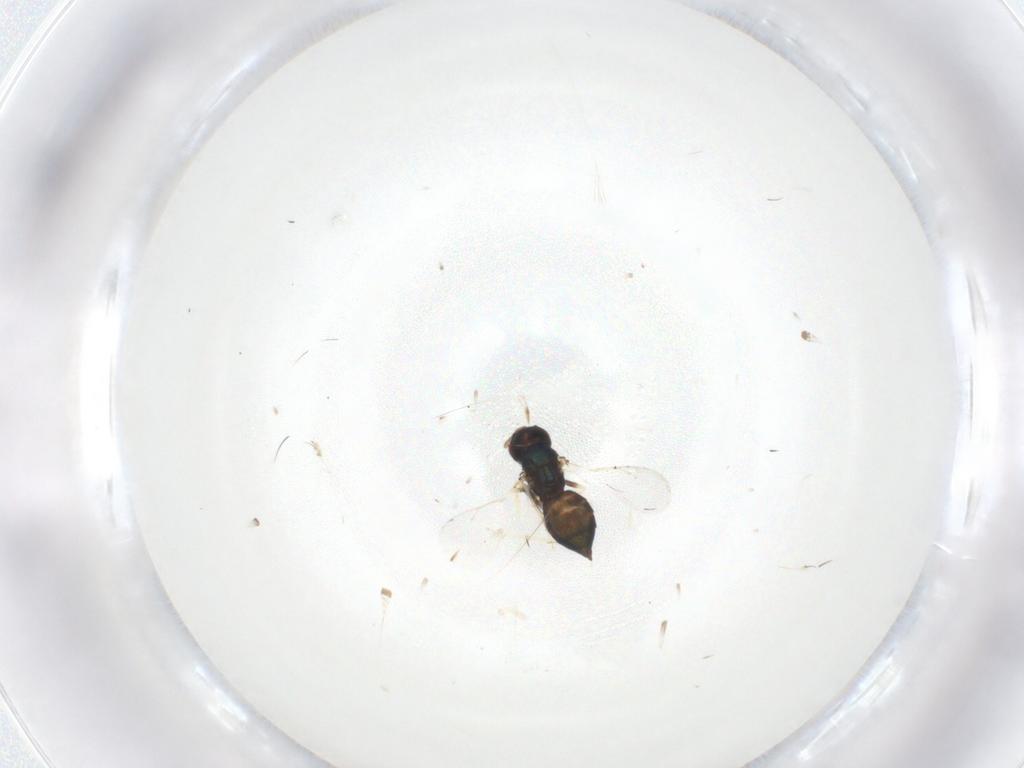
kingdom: Animalia
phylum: Arthropoda
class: Insecta
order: Hymenoptera
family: Eulophidae
